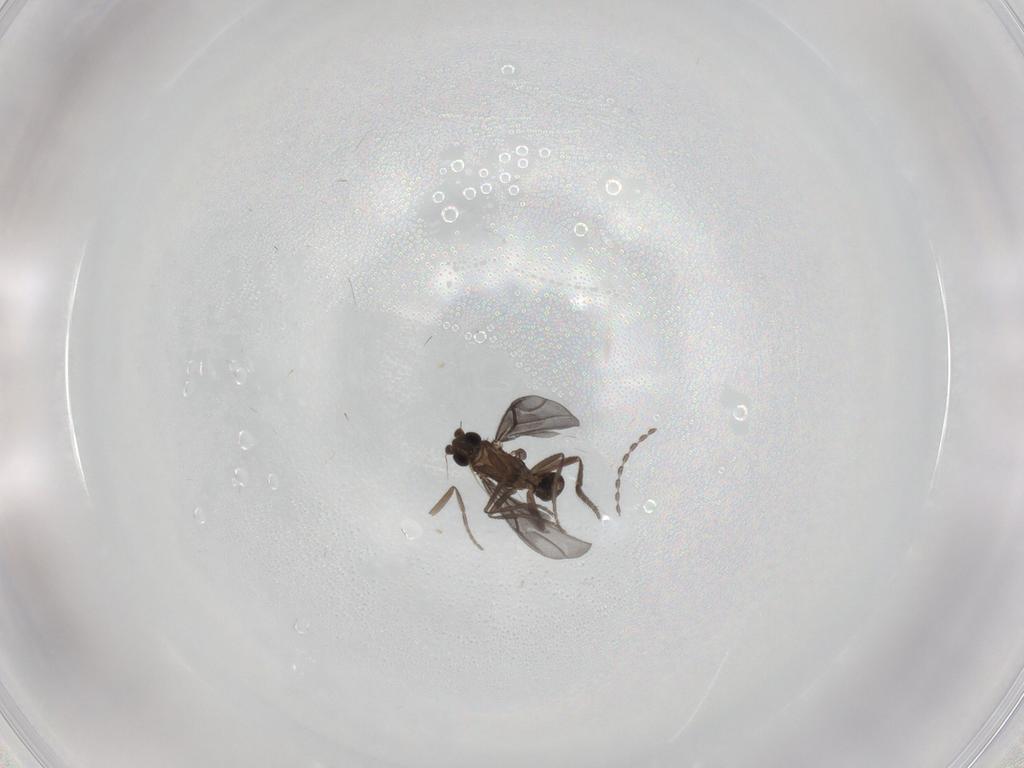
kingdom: Animalia
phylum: Arthropoda
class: Insecta
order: Diptera
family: Phoridae
